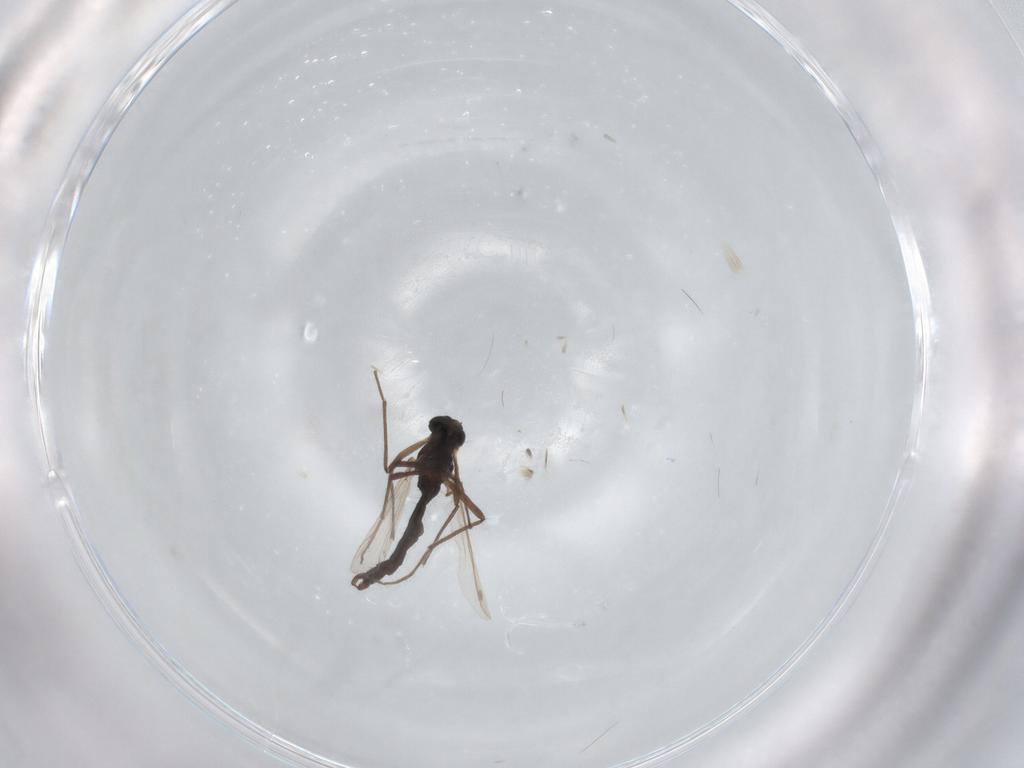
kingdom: Animalia
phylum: Arthropoda
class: Insecta
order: Diptera
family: Chironomidae
